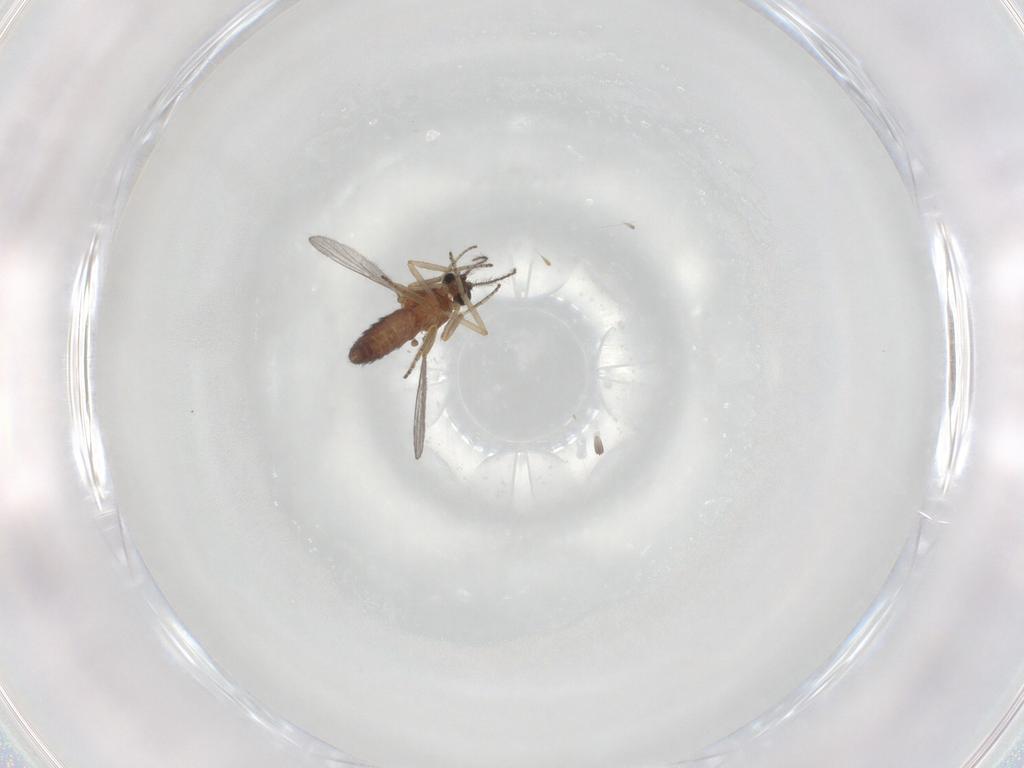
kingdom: Animalia
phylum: Arthropoda
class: Insecta
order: Diptera
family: Ceratopogonidae
